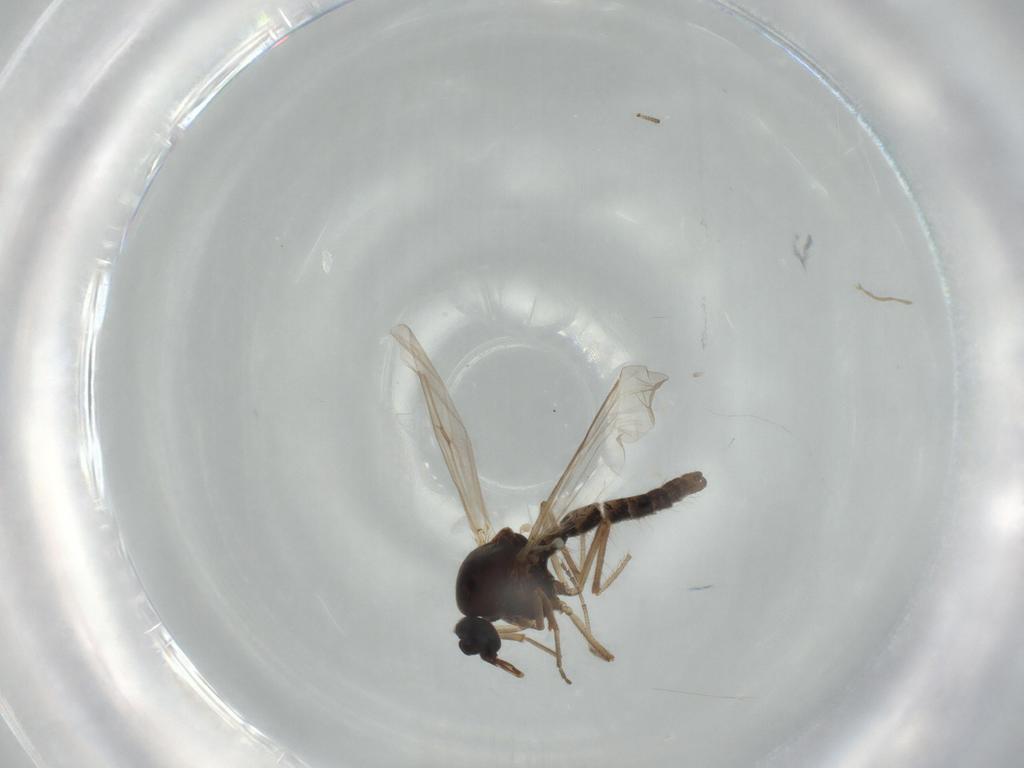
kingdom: Animalia
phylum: Arthropoda
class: Insecta
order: Diptera
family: Ceratopogonidae
